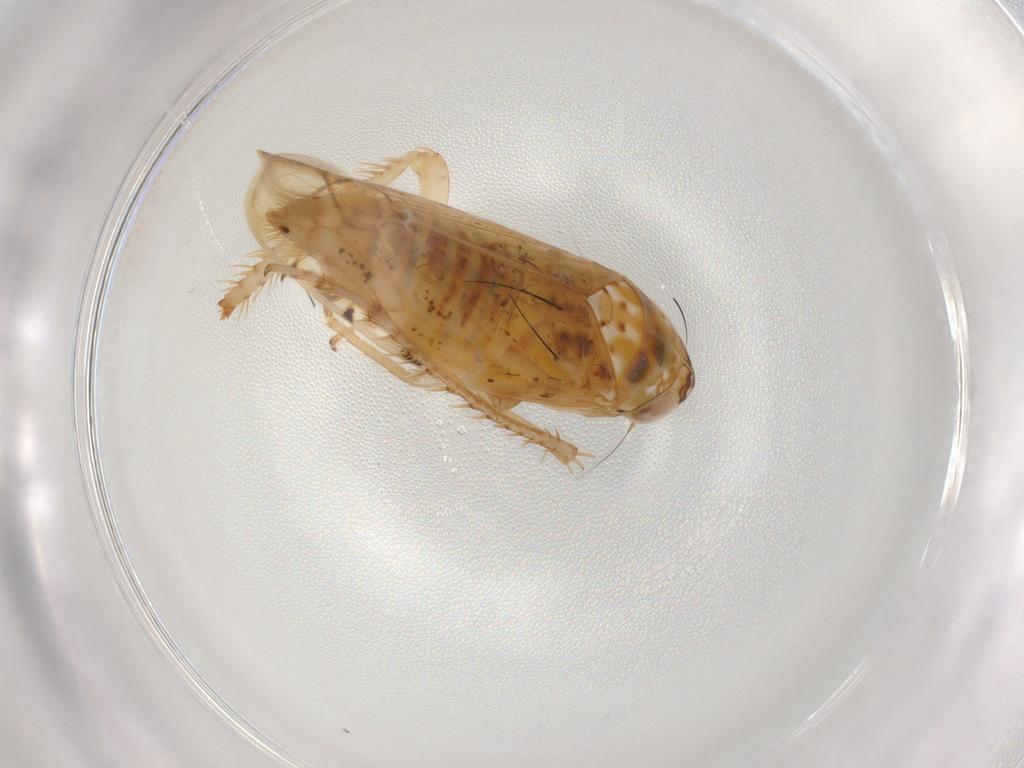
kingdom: Animalia
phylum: Arthropoda
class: Insecta
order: Hemiptera
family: Cicadellidae
